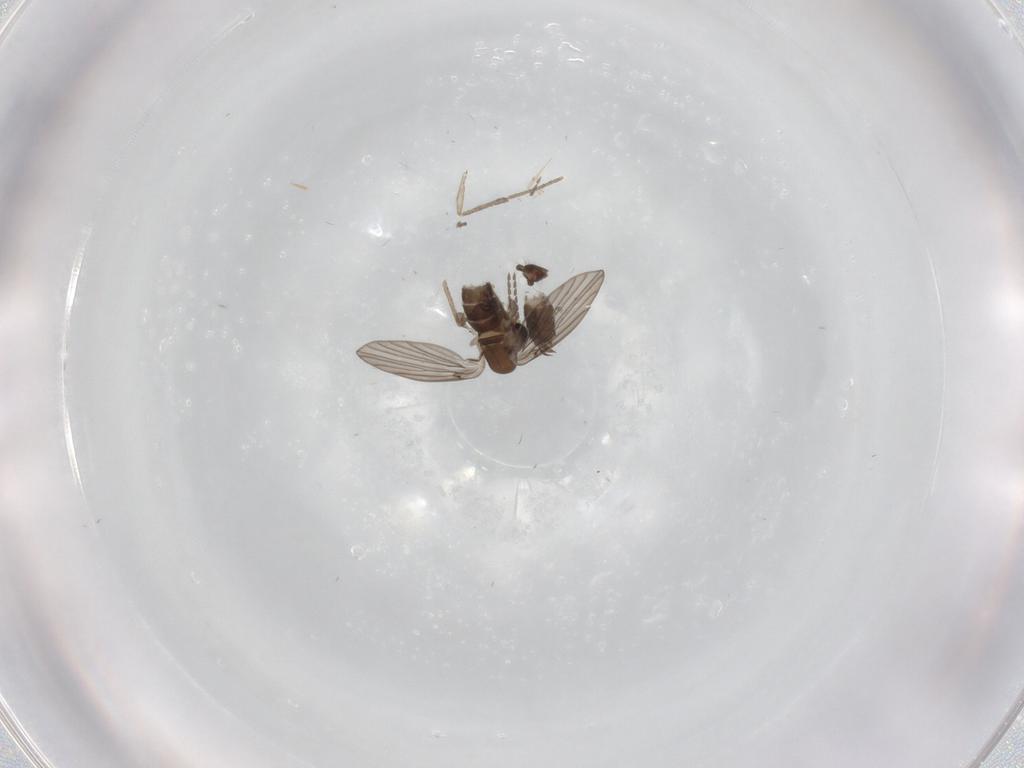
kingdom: Animalia
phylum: Arthropoda
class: Insecta
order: Diptera
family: Ceratopogonidae
